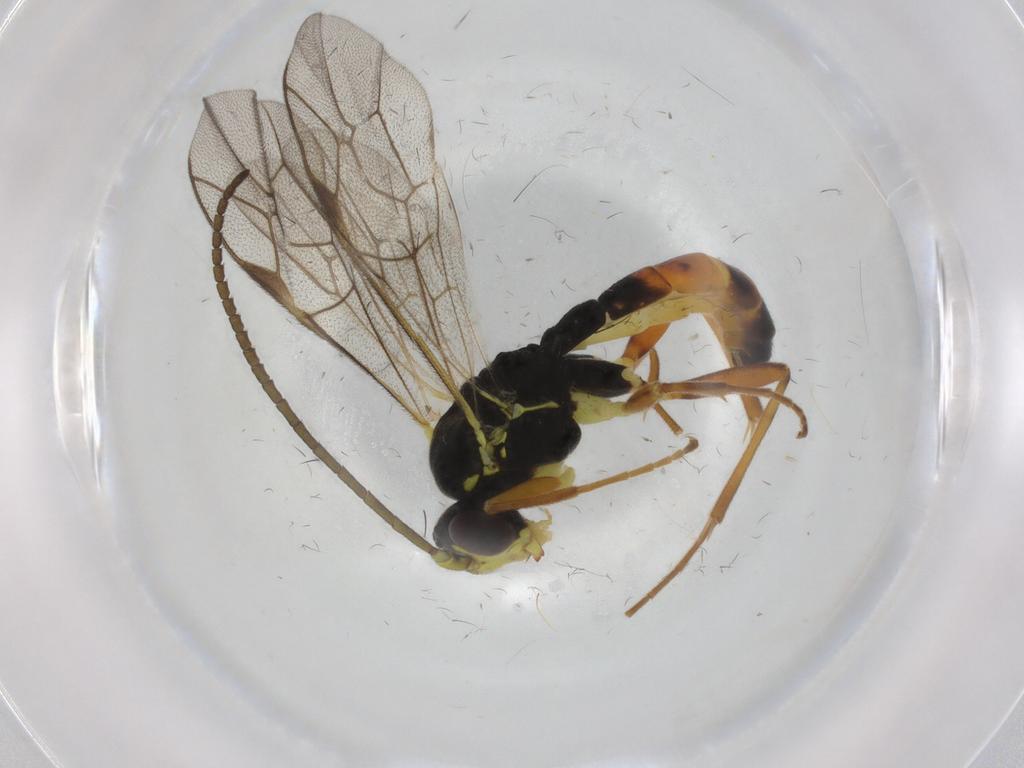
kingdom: Animalia
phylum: Arthropoda
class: Insecta
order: Hymenoptera
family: Ichneumonidae
